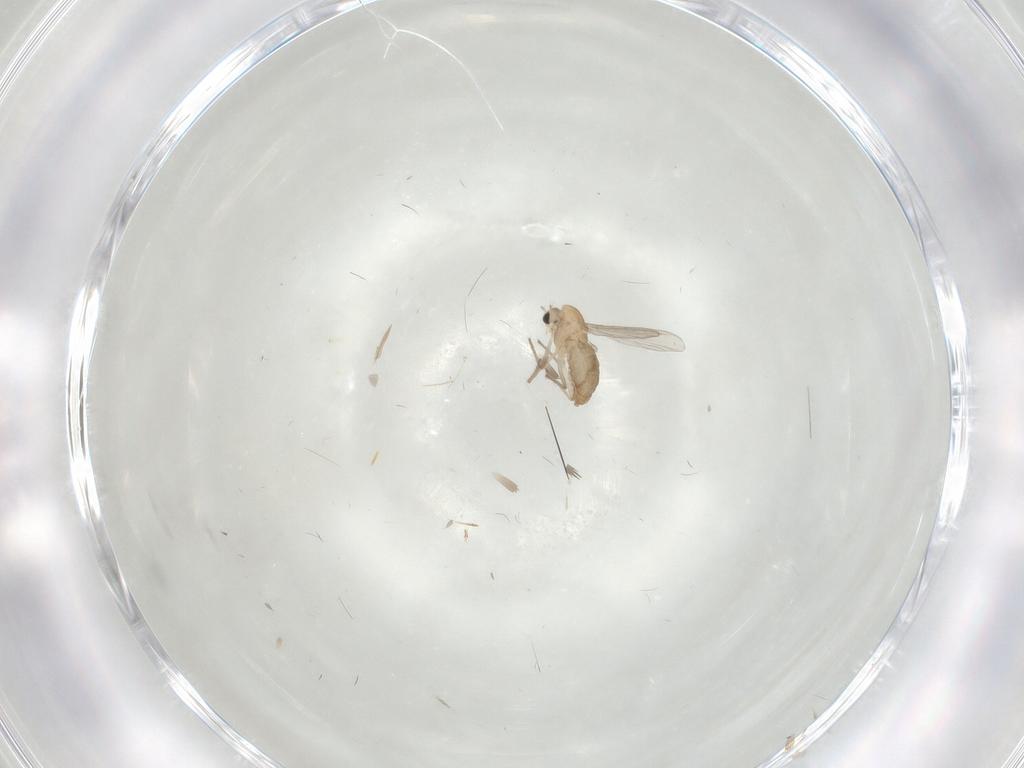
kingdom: Animalia
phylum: Arthropoda
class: Insecta
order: Diptera
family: Chironomidae
